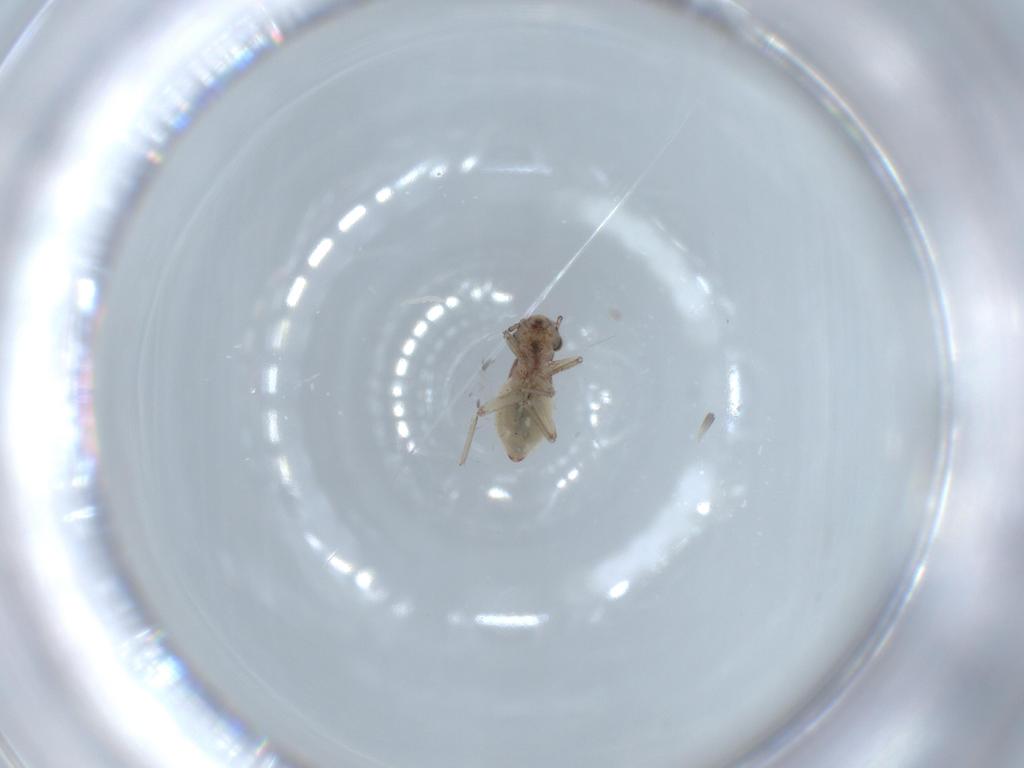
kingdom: Animalia
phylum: Arthropoda
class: Insecta
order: Psocodea
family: Lepidopsocidae
